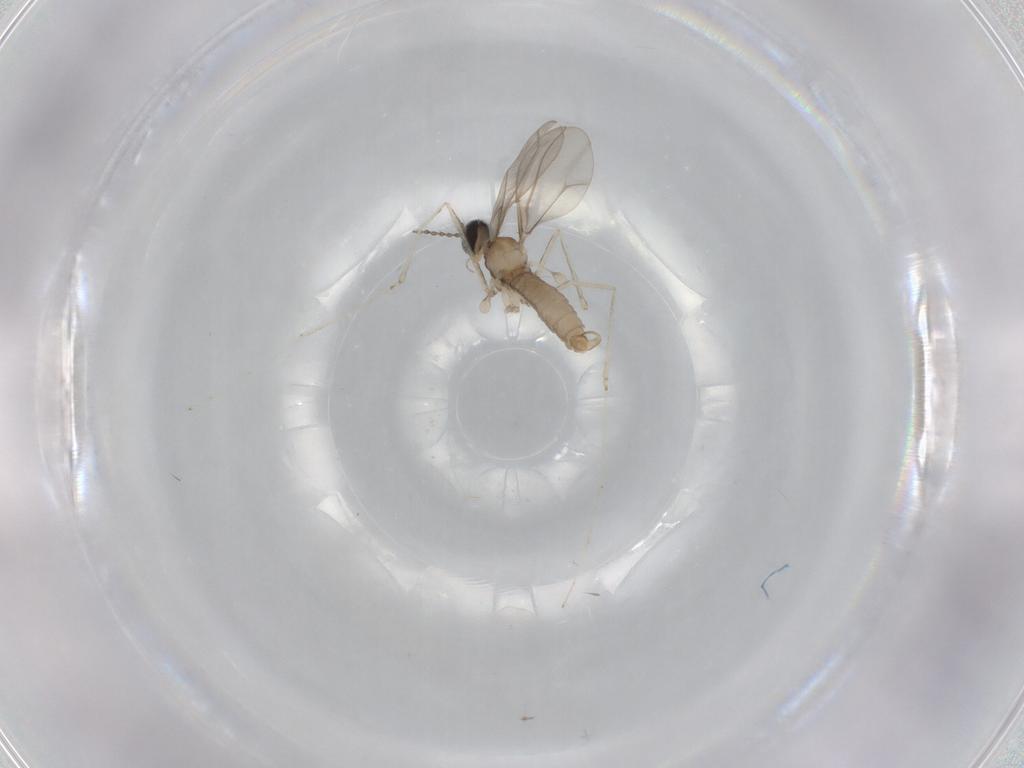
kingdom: Animalia
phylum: Arthropoda
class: Insecta
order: Diptera
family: Cecidomyiidae
